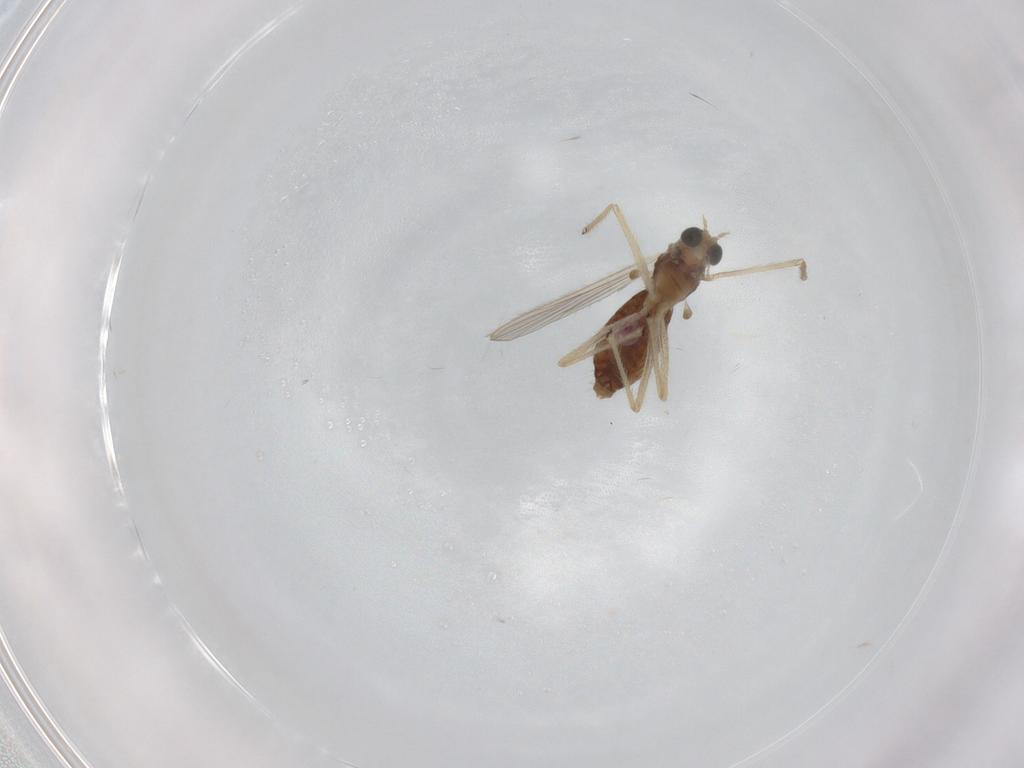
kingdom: Animalia
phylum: Arthropoda
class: Insecta
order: Diptera
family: Chironomidae
